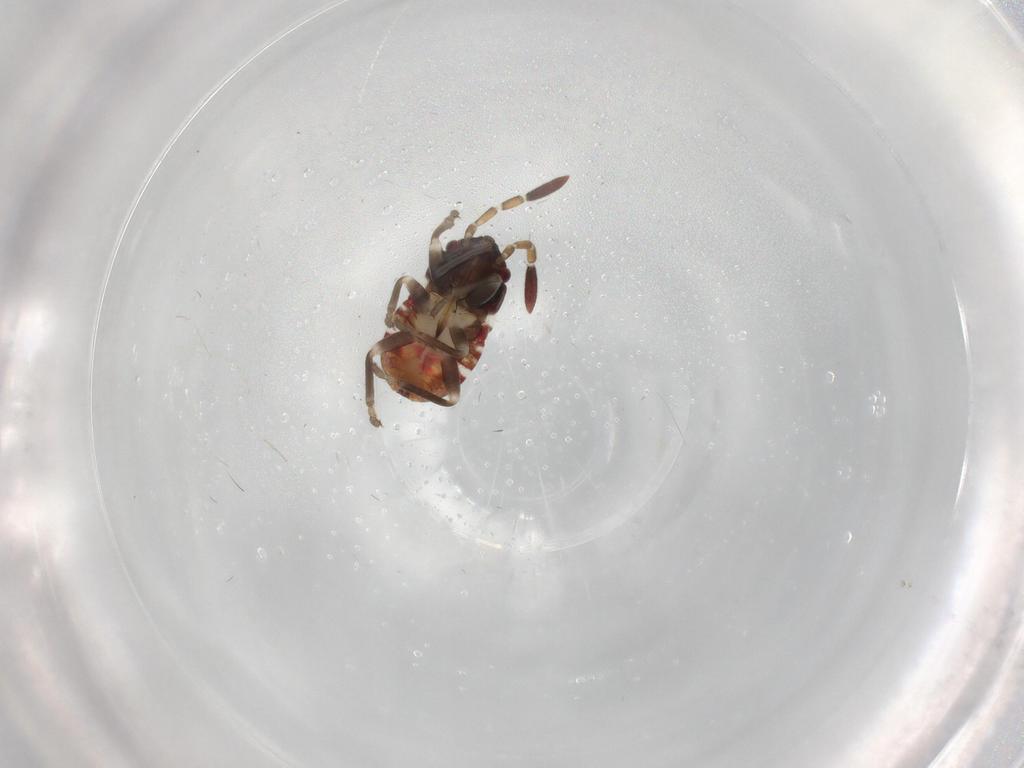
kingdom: Animalia
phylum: Arthropoda
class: Insecta
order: Hemiptera
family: Rhyparochromidae
